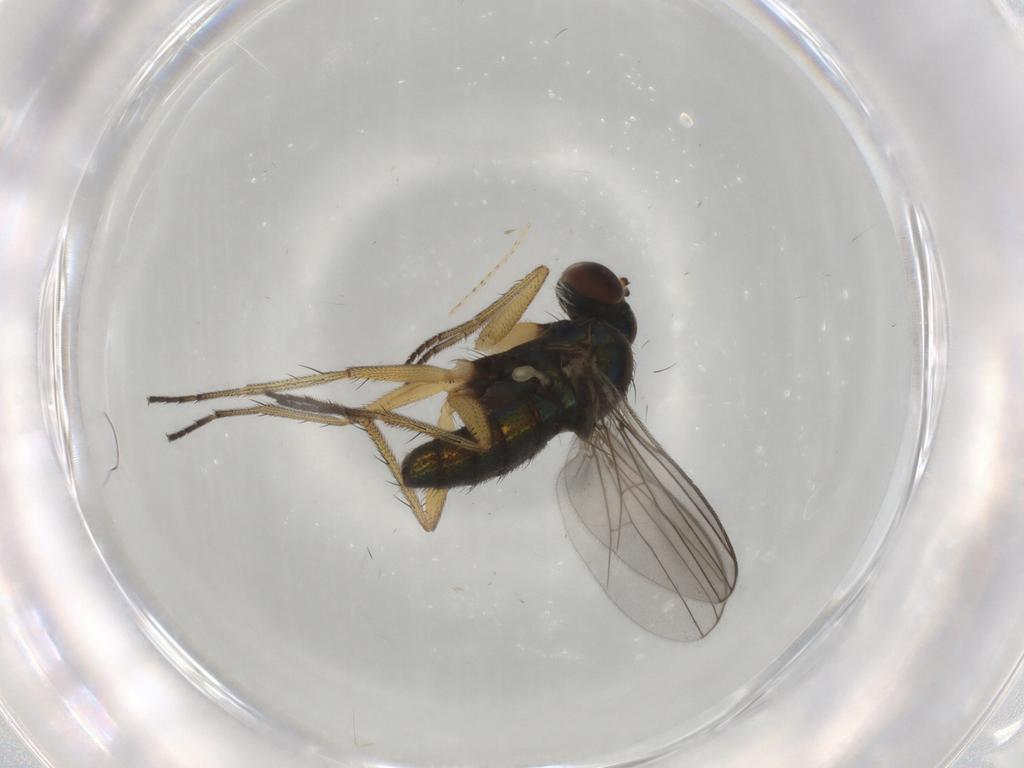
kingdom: Animalia
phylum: Arthropoda
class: Insecta
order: Diptera
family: Dolichopodidae
